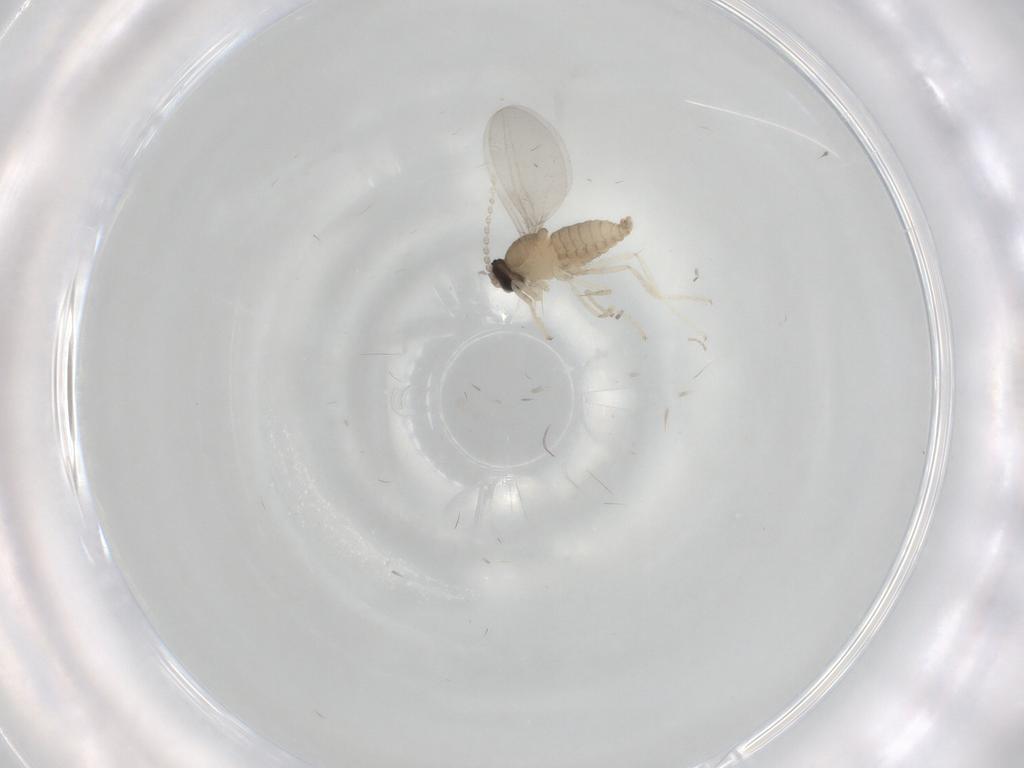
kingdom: Animalia
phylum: Arthropoda
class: Insecta
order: Diptera
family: Cecidomyiidae
